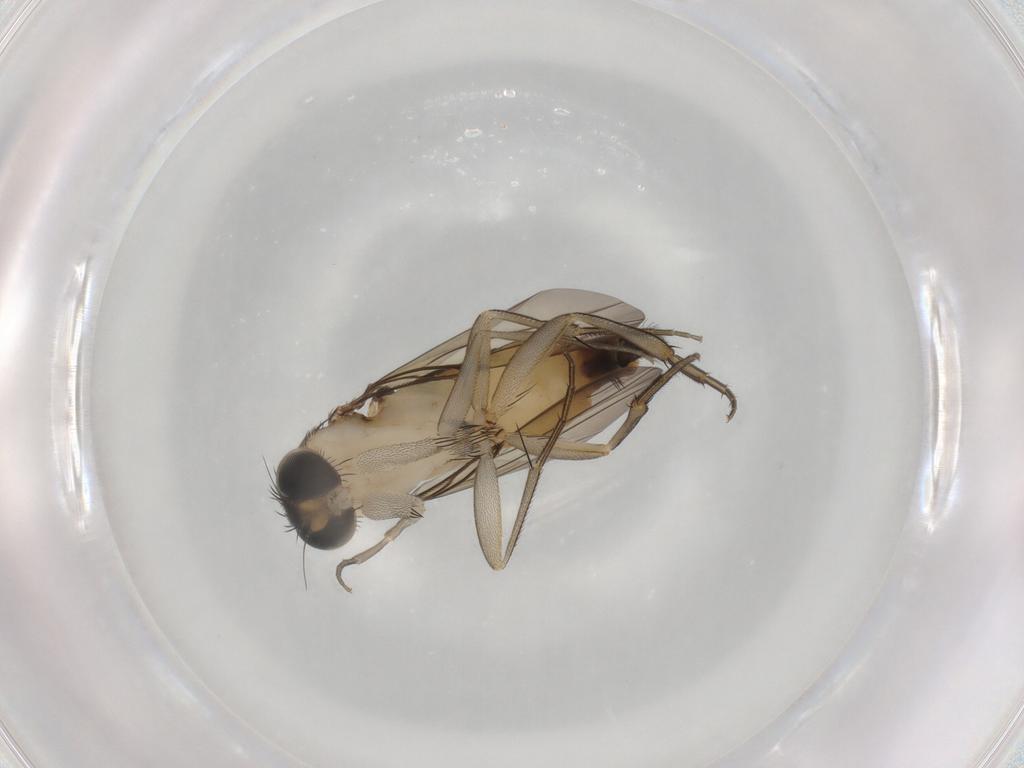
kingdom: Animalia
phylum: Arthropoda
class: Insecta
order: Diptera
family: Phoridae
